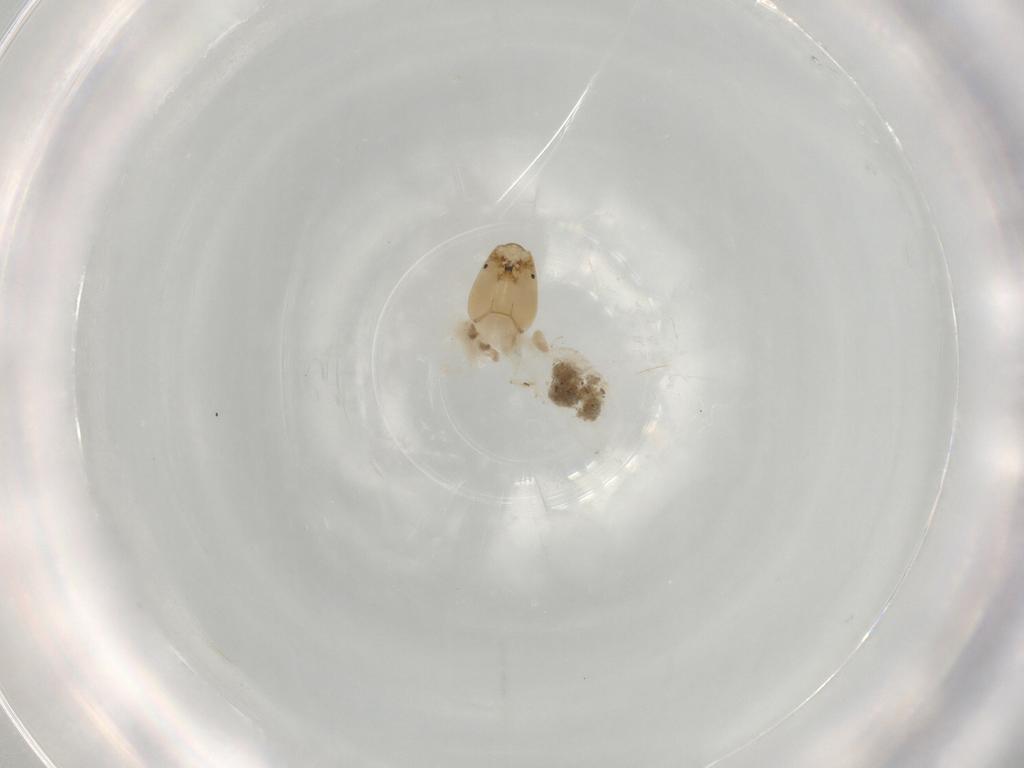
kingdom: Animalia
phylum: Arthropoda
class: Insecta
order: Diptera
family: Chironomidae
